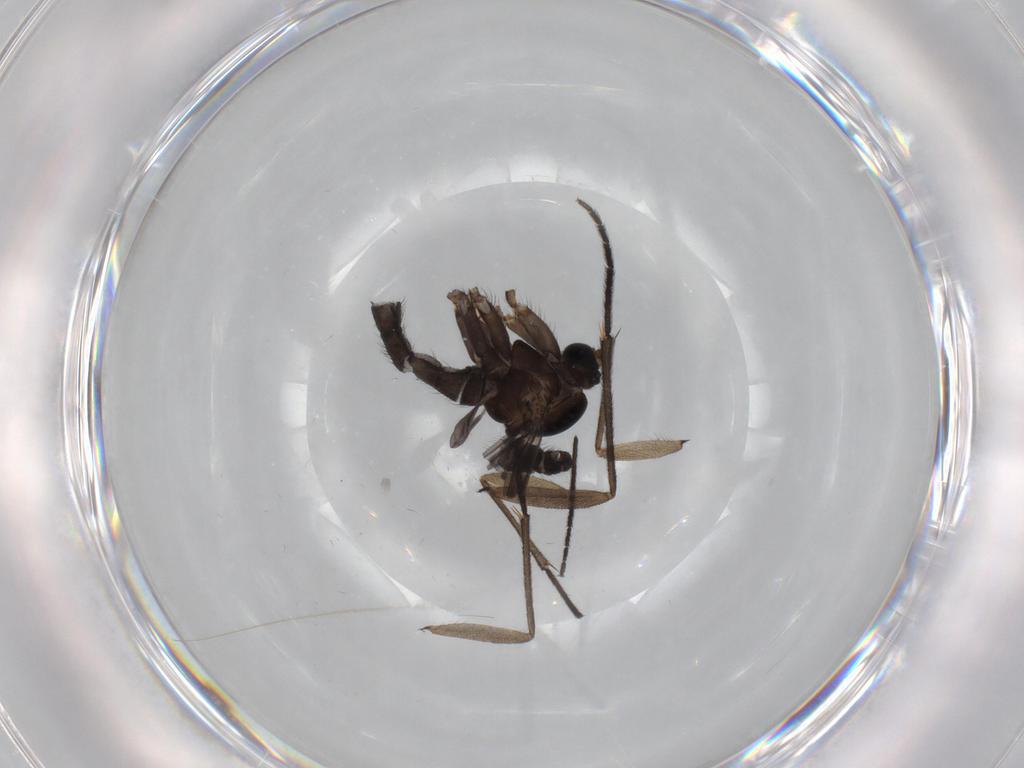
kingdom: Animalia
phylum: Arthropoda
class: Insecta
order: Diptera
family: Sciaridae
